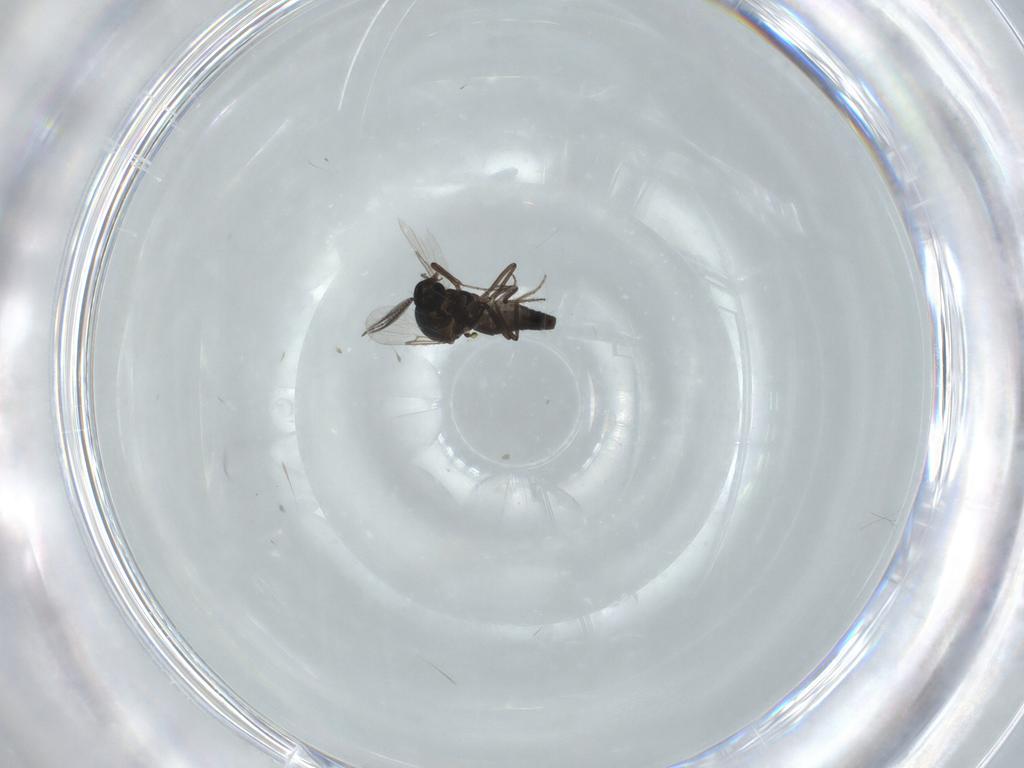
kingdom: Animalia
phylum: Arthropoda
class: Insecta
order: Diptera
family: Ceratopogonidae
